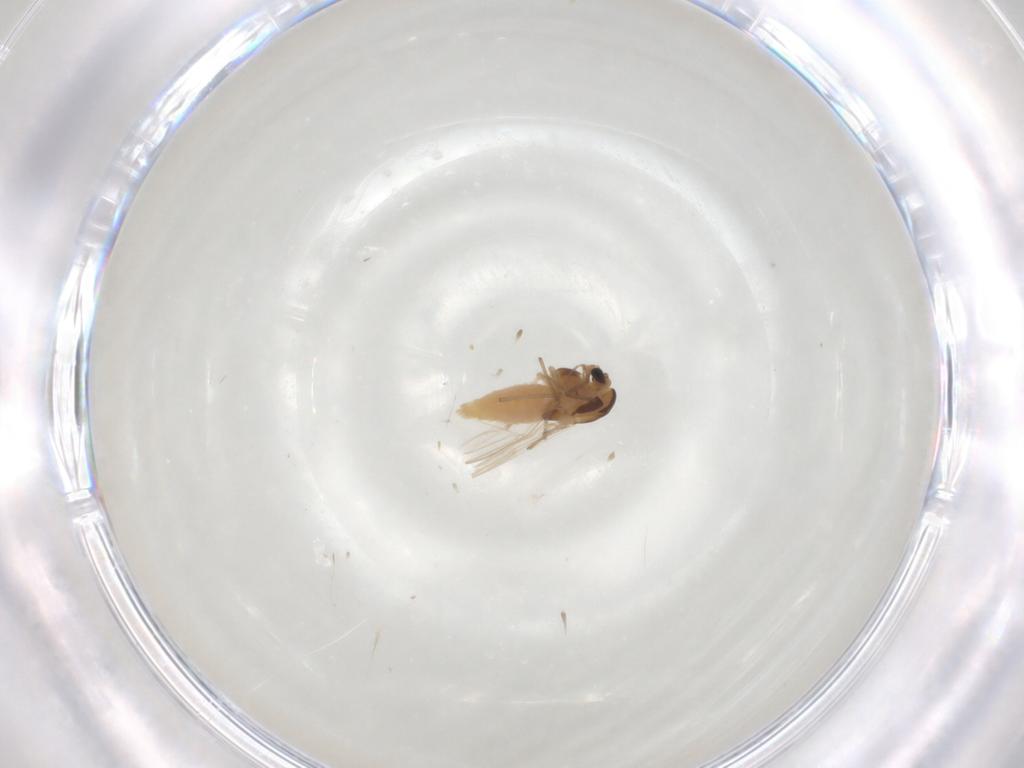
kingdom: Animalia
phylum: Arthropoda
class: Insecta
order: Diptera
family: Chironomidae
